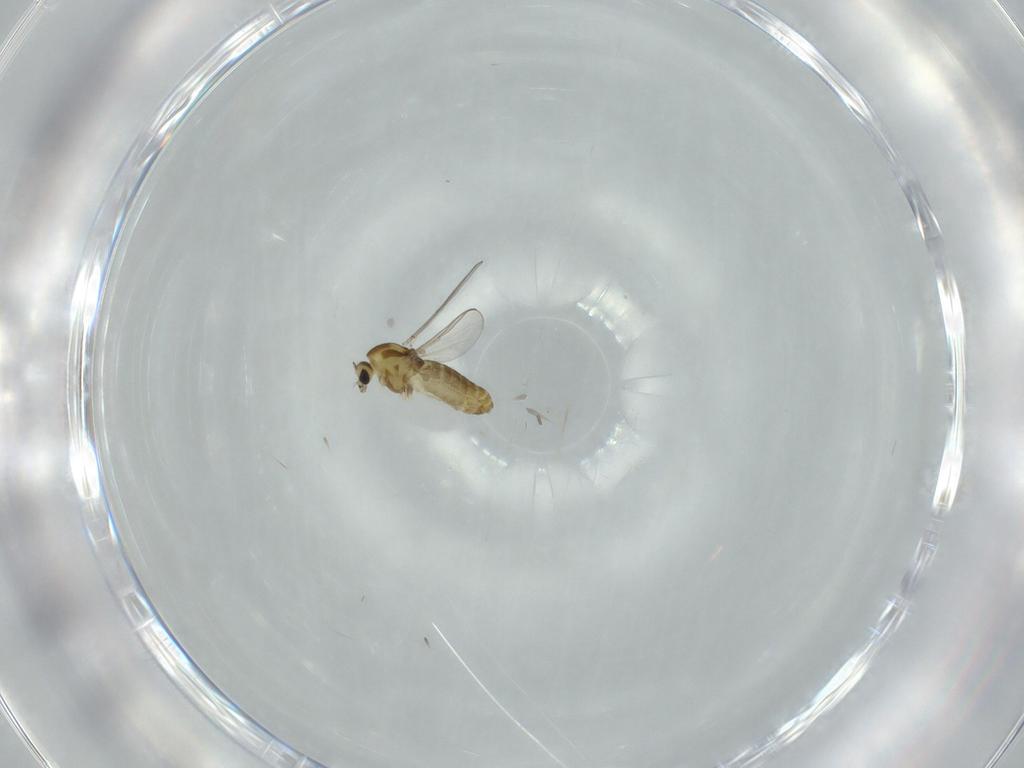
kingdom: Animalia
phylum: Arthropoda
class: Insecta
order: Diptera
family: Chironomidae
